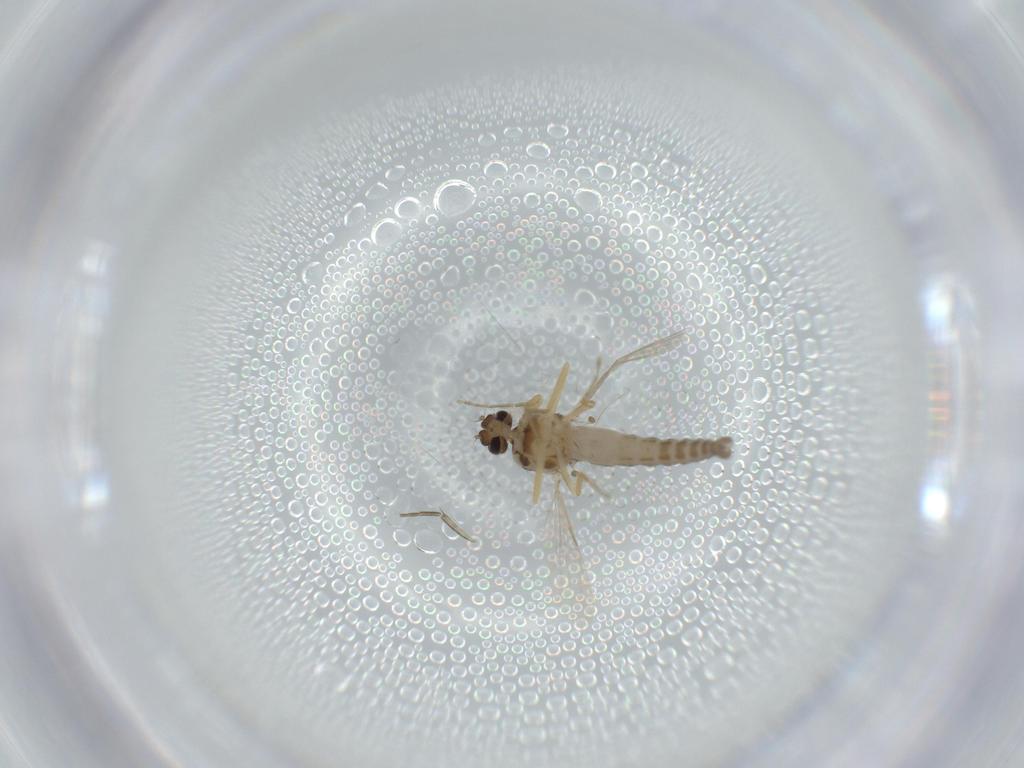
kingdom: Animalia
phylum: Arthropoda
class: Insecta
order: Diptera
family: Ceratopogonidae
